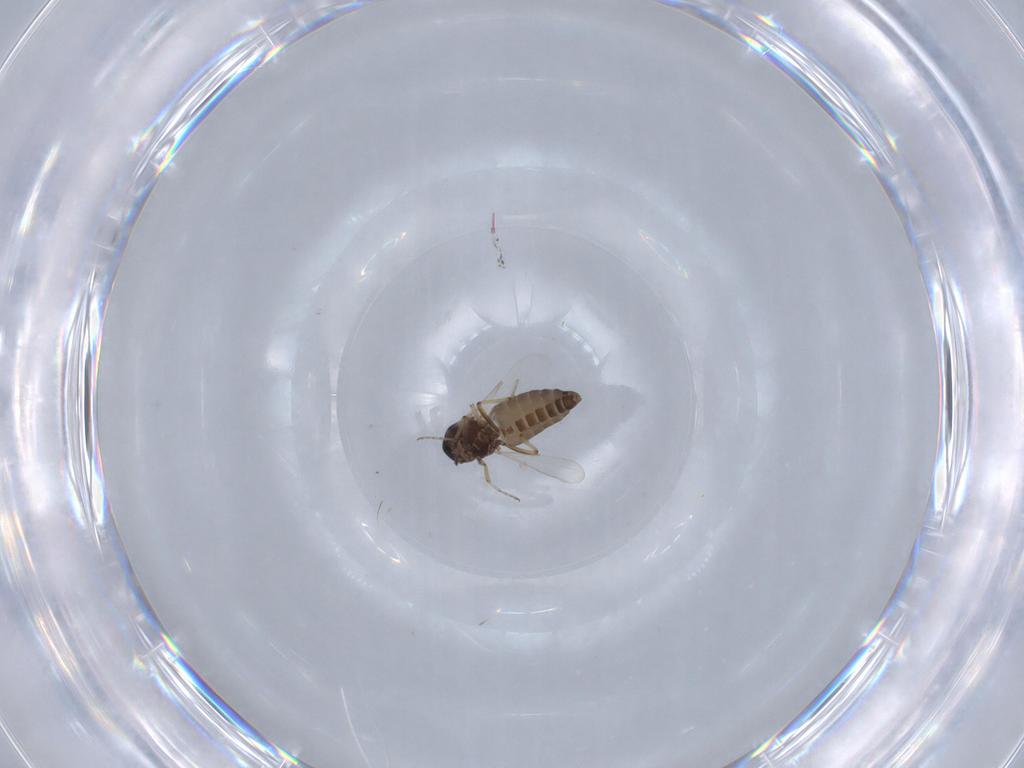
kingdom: Animalia
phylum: Arthropoda
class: Insecta
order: Diptera
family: Ceratopogonidae
